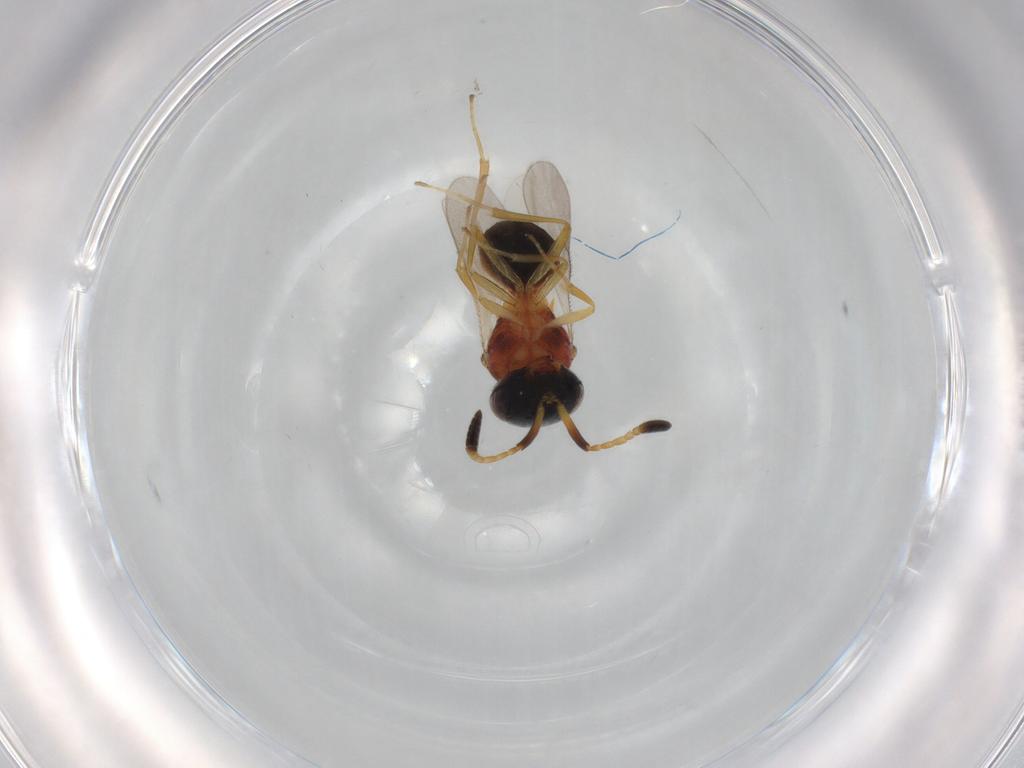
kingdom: Animalia
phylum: Arthropoda
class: Insecta
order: Hymenoptera
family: Scelionidae
